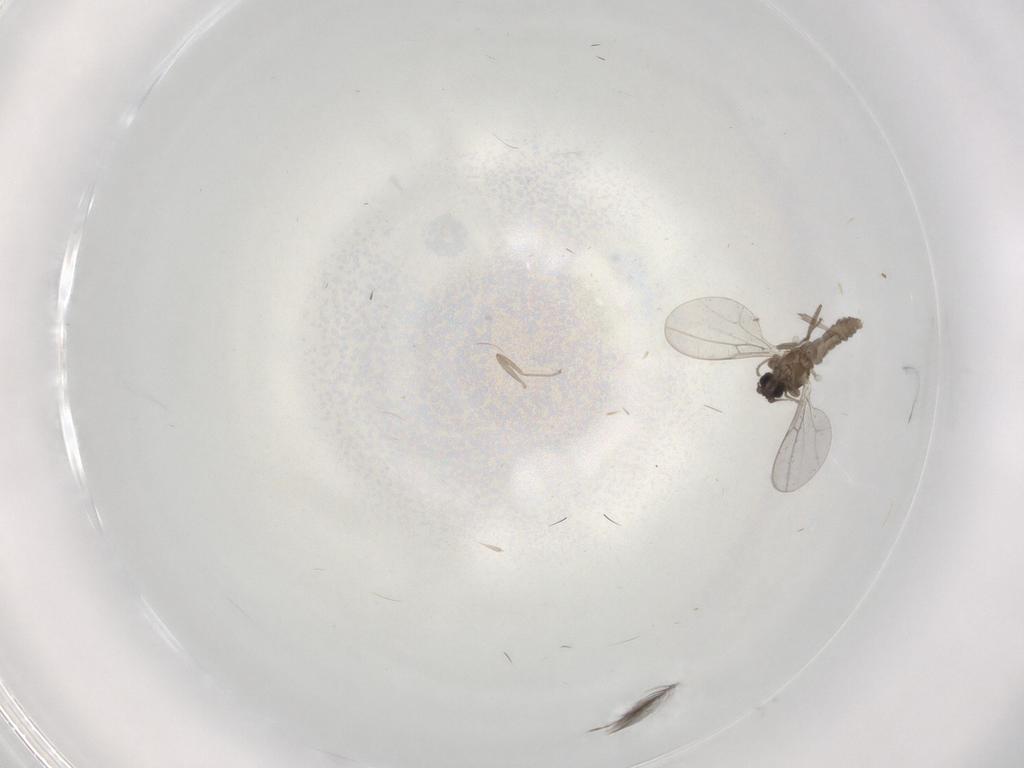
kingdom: Animalia
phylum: Arthropoda
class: Insecta
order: Diptera
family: Cecidomyiidae
